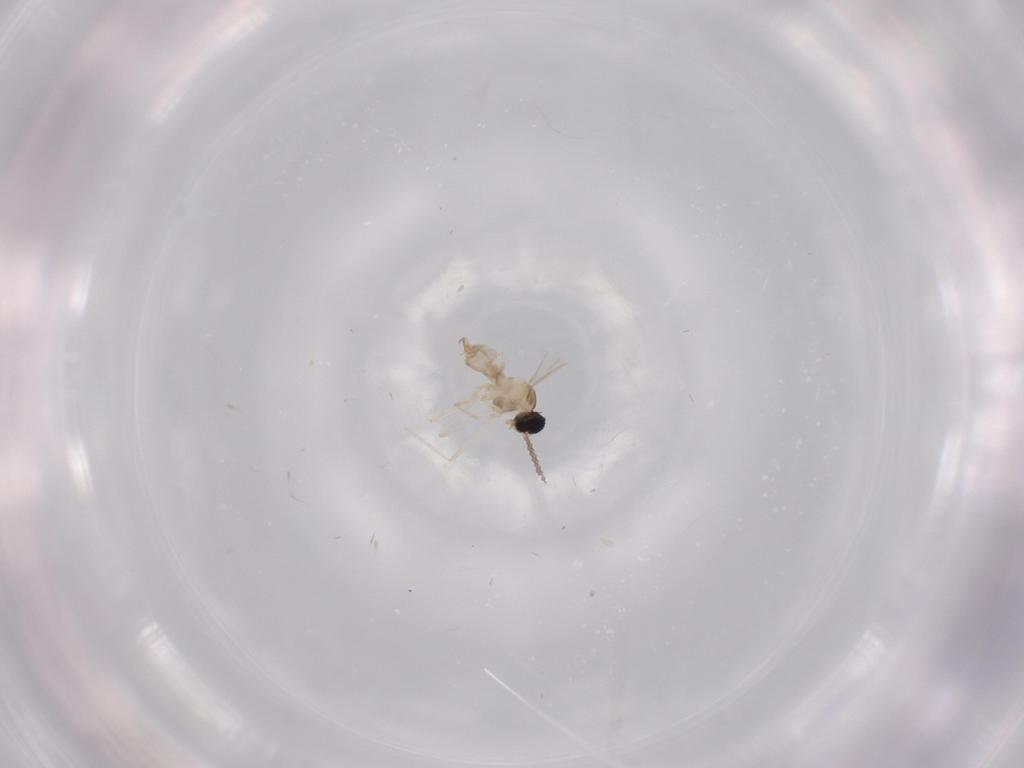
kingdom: Animalia
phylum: Arthropoda
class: Insecta
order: Diptera
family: Cecidomyiidae
